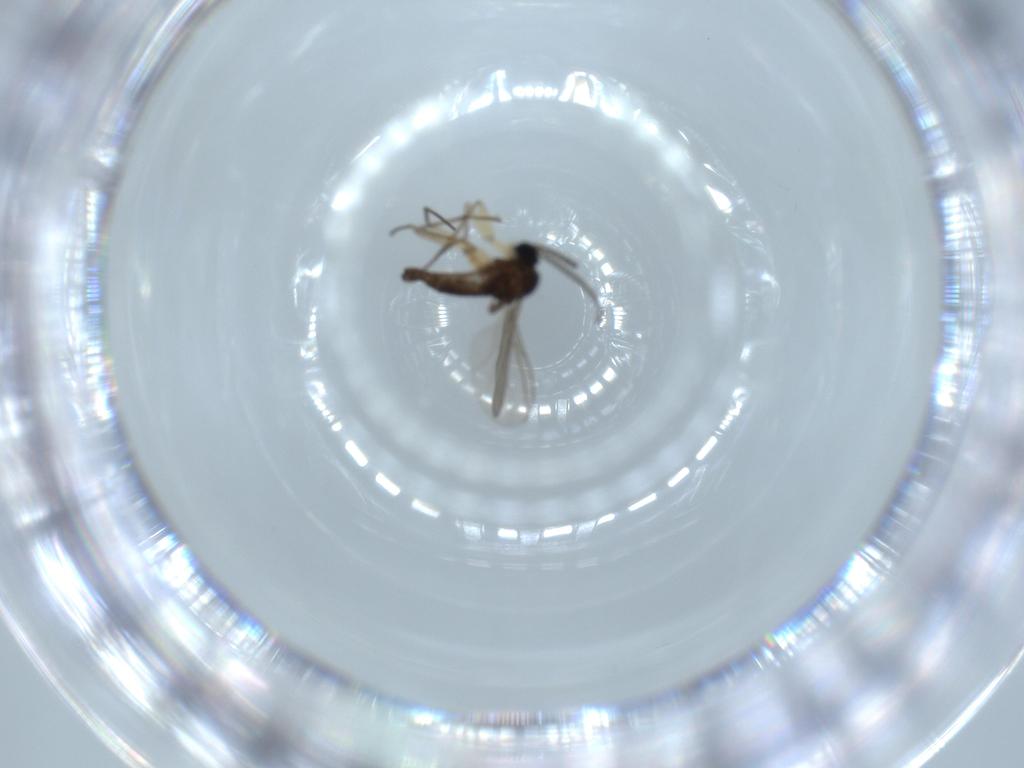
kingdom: Animalia
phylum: Arthropoda
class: Insecta
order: Diptera
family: Sciaridae
